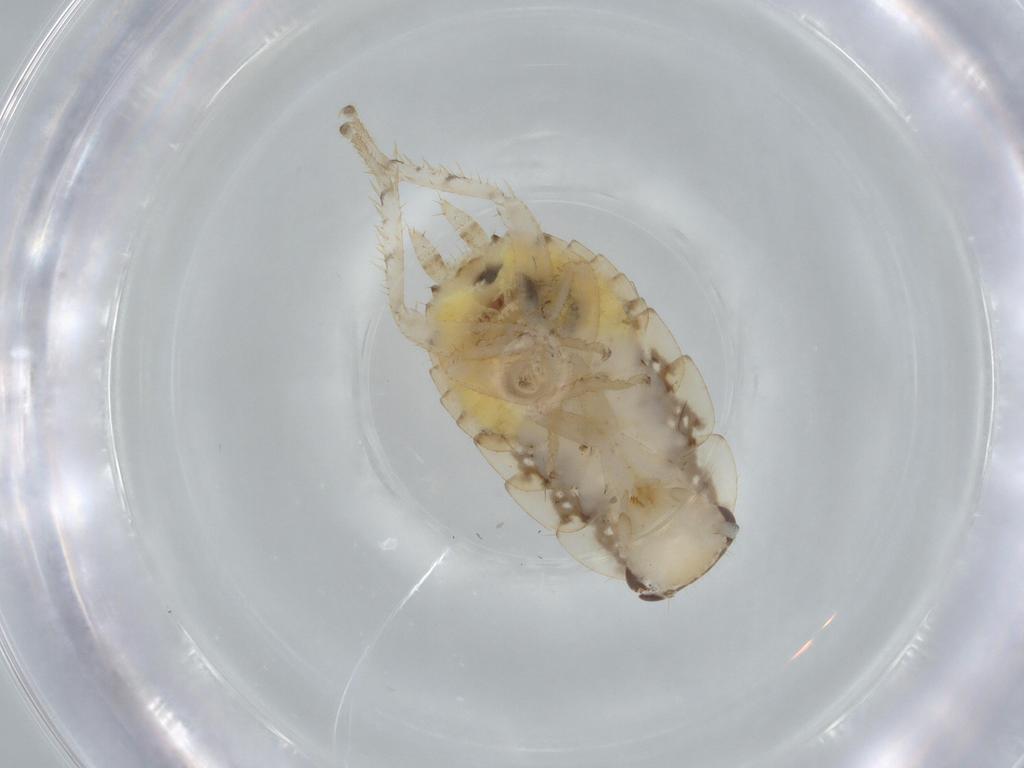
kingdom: Animalia
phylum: Arthropoda
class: Insecta
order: Blattodea
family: Ectobiidae
